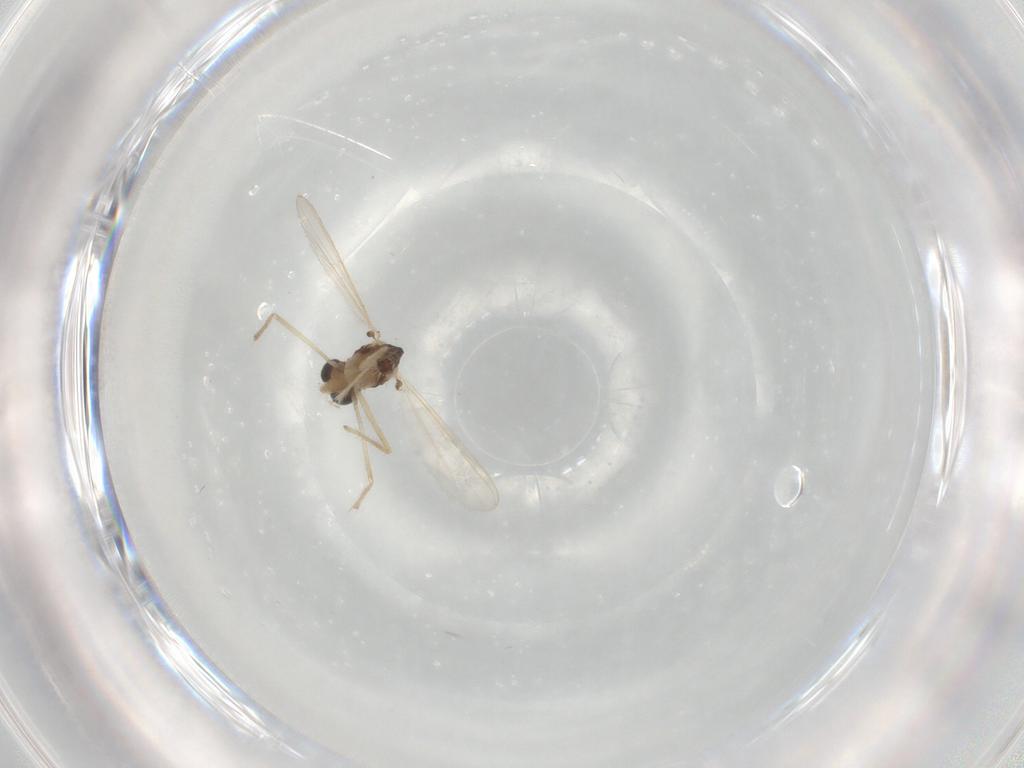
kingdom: Animalia
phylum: Arthropoda
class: Insecta
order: Diptera
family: Chironomidae
